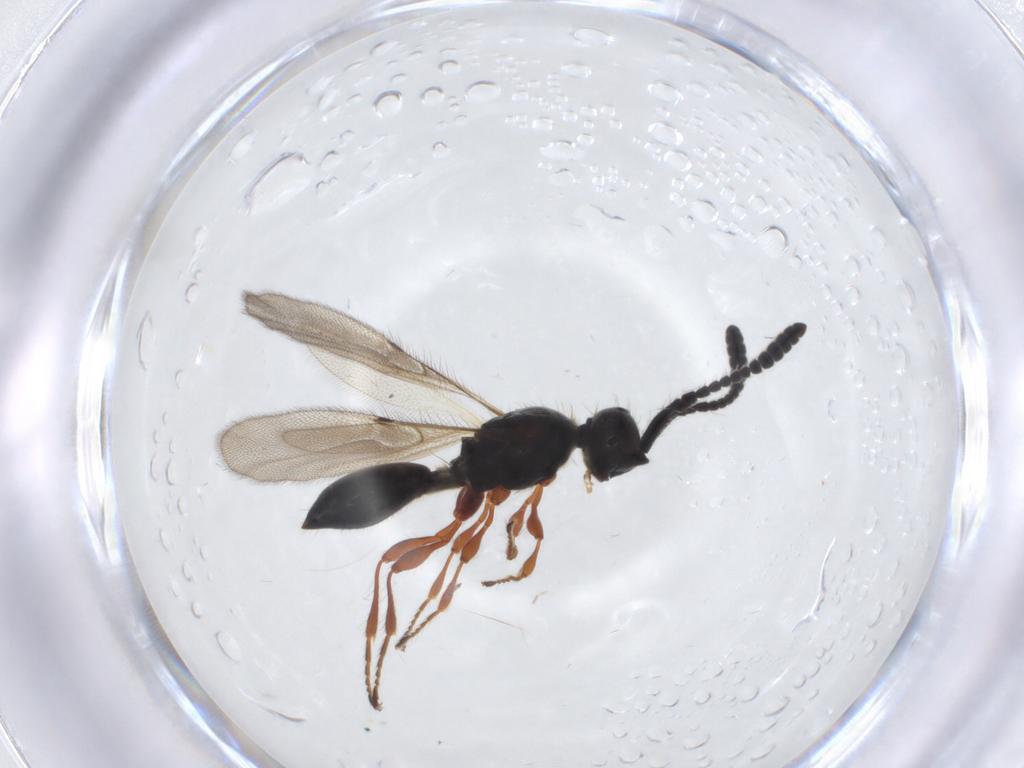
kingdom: Animalia
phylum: Arthropoda
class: Insecta
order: Hymenoptera
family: Diapriidae
